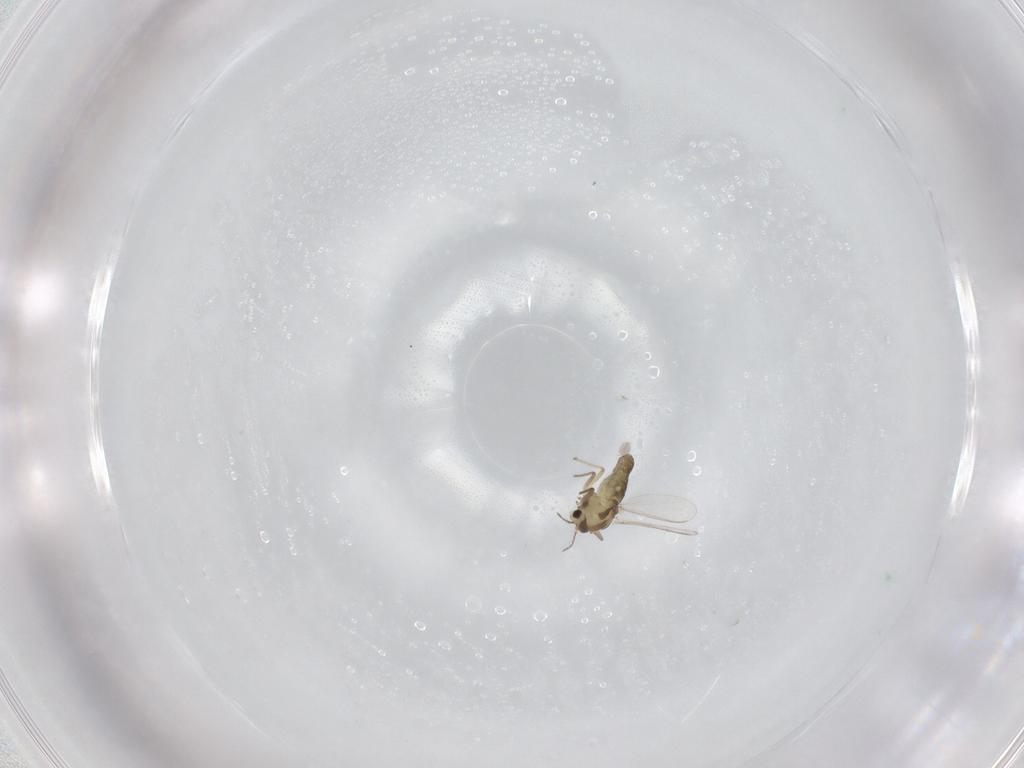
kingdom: Animalia
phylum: Arthropoda
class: Insecta
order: Diptera
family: Chironomidae
